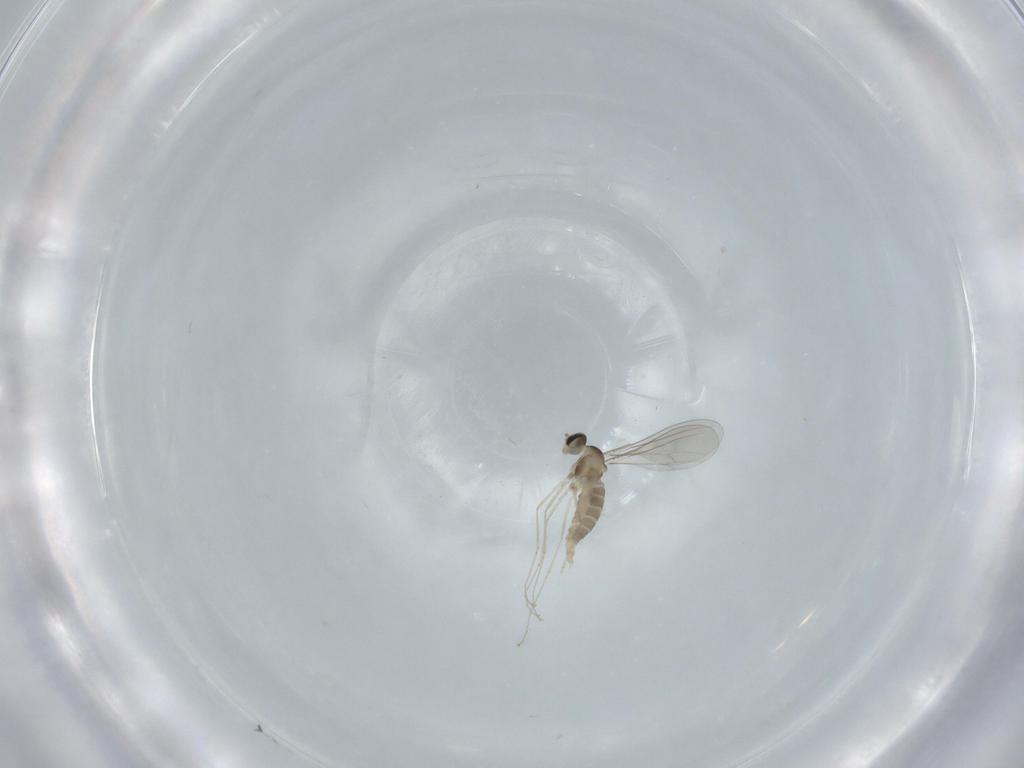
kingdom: Animalia
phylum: Arthropoda
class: Insecta
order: Diptera
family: Cecidomyiidae
